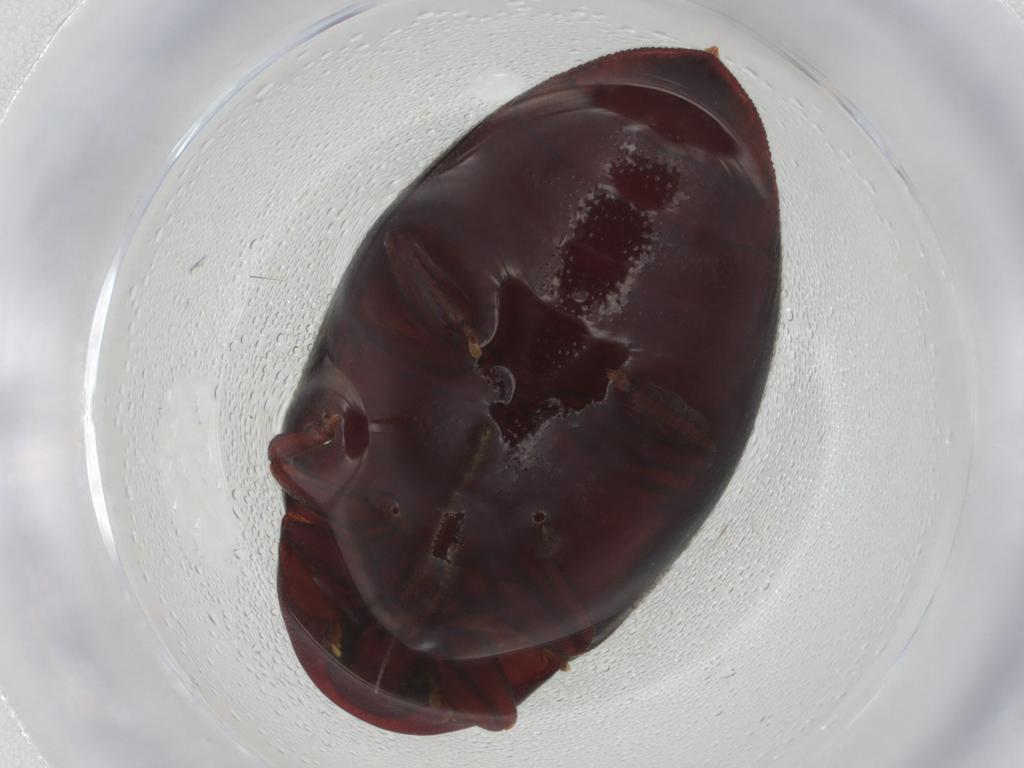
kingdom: Animalia
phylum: Arthropoda
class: Insecta
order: Coleoptera
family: Chelonariidae
